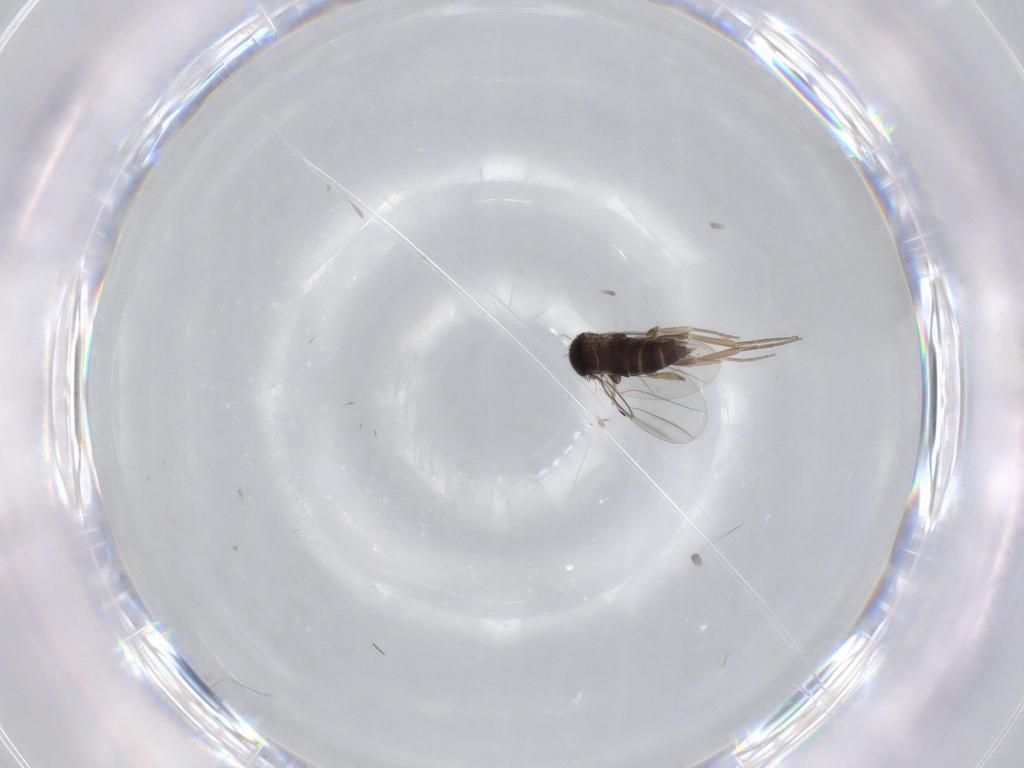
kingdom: Animalia
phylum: Arthropoda
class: Insecta
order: Diptera
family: Phoridae
